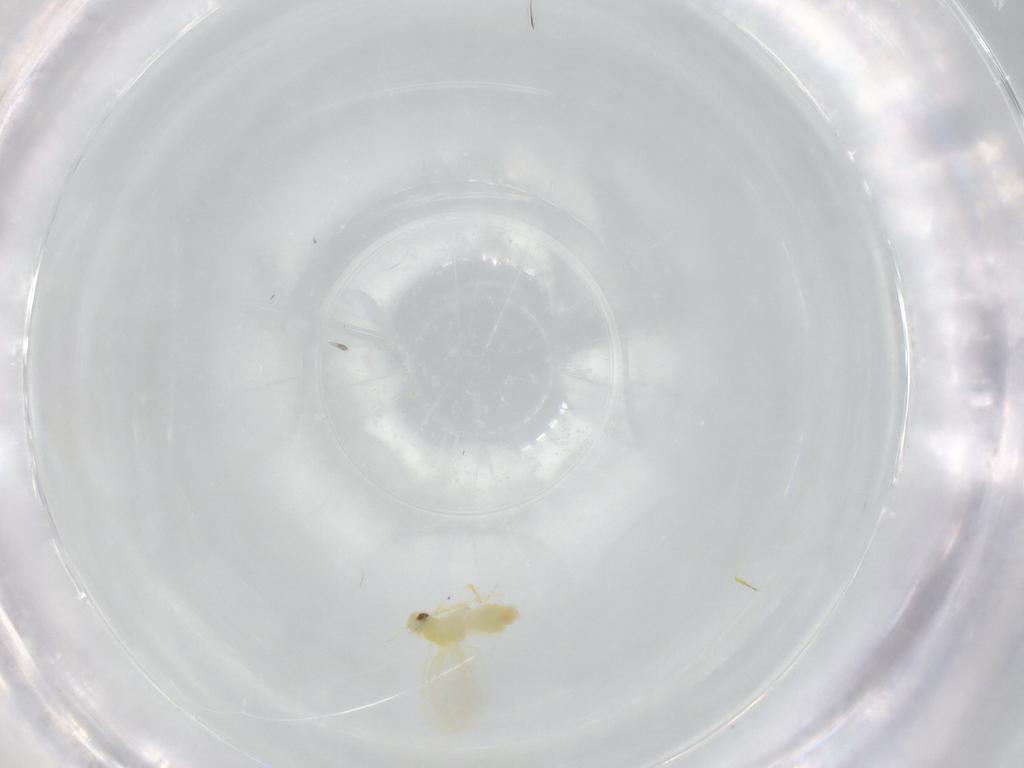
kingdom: Animalia
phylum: Arthropoda
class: Insecta
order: Hemiptera
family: Aleyrodidae
